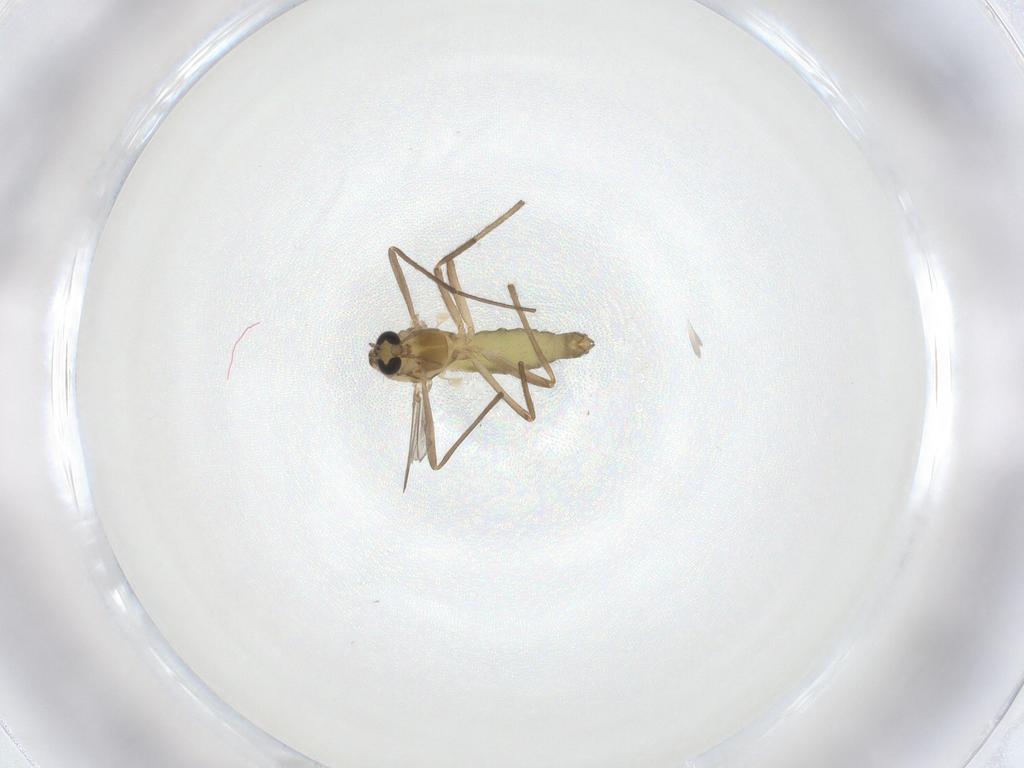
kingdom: Animalia
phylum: Arthropoda
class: Insecta
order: Diptera
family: Chironomidae
